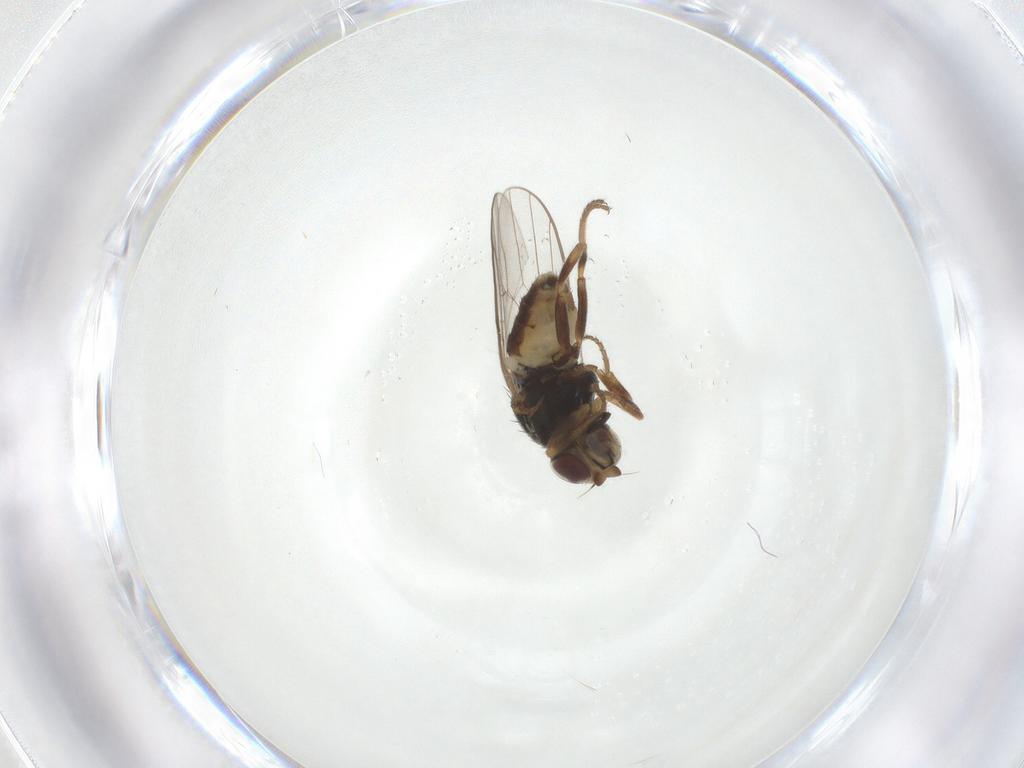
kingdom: Animalia
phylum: Arthropoda
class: Insecta
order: Diptera
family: Chloropidae
